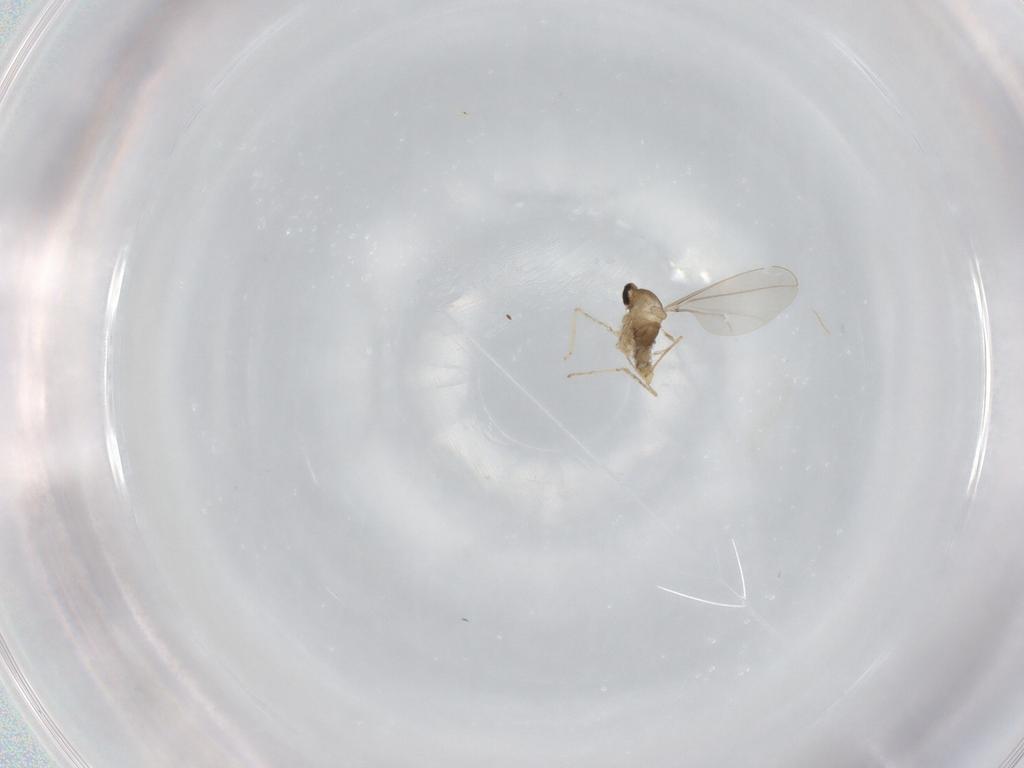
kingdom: Animalia
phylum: Arthropoda
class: Insecta
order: Diptera
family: Cecidomyiidae
